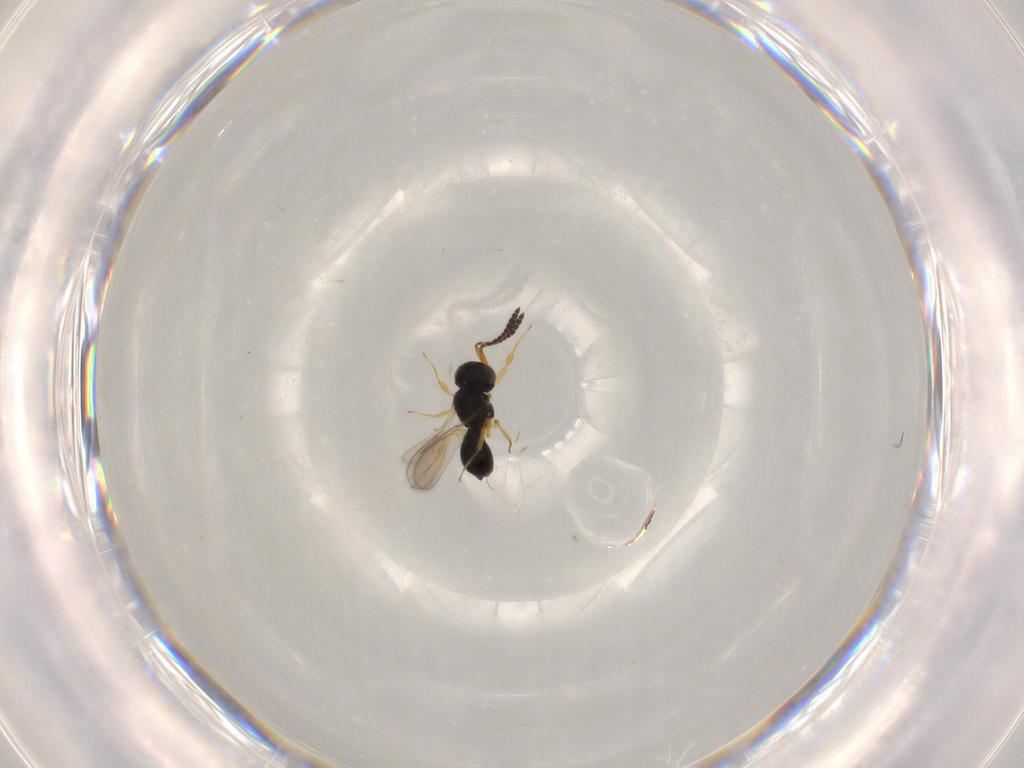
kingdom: Animalia
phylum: Arthropoda
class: Insecta
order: Hymenoptera
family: Scelionidae
